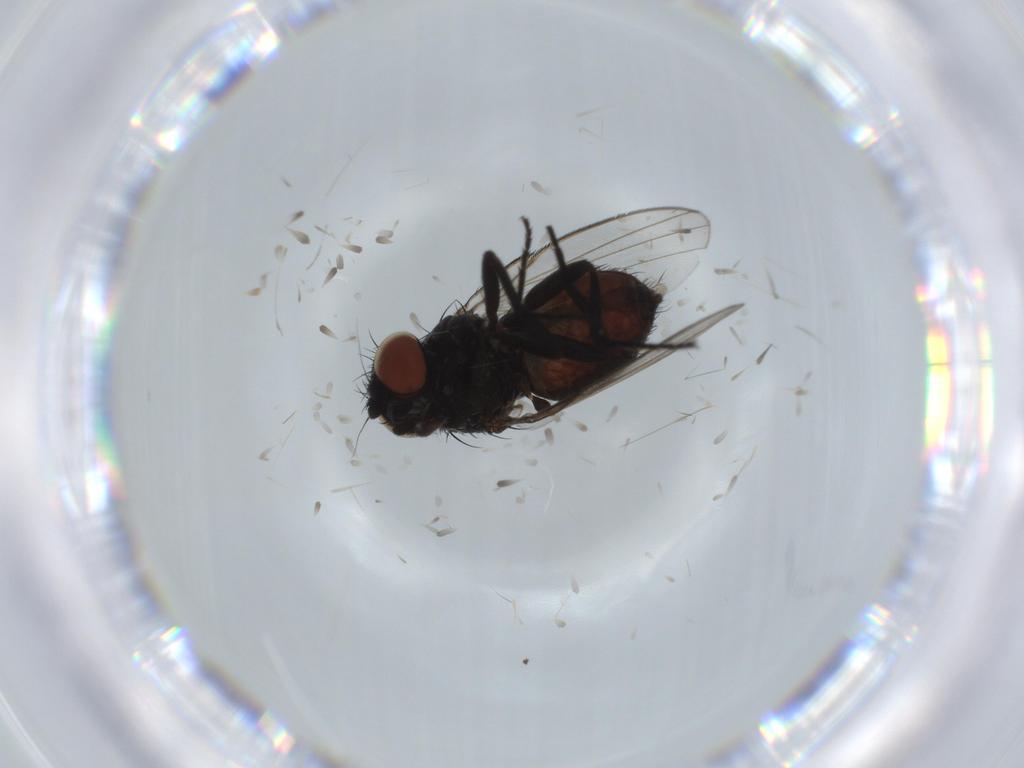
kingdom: Animalia
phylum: Arthropoda
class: Insecta
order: Diptera
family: Milichiidae
